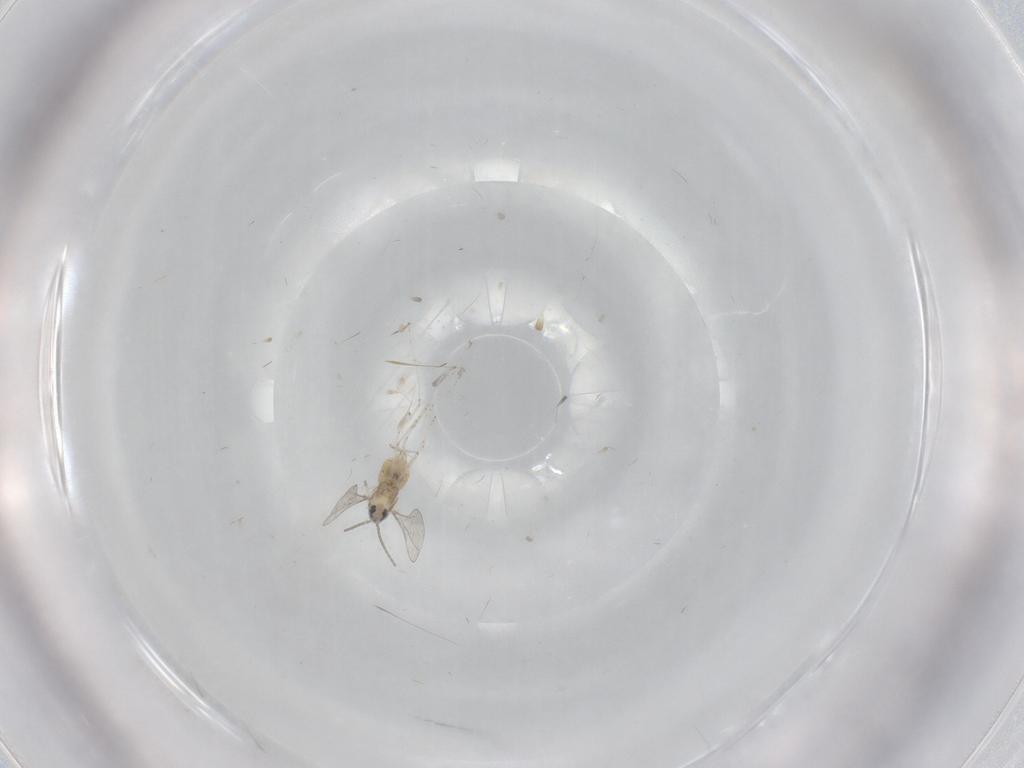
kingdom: Animalia
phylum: Arthropoda
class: Insecta
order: Diptera
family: Cecidomyiidae
